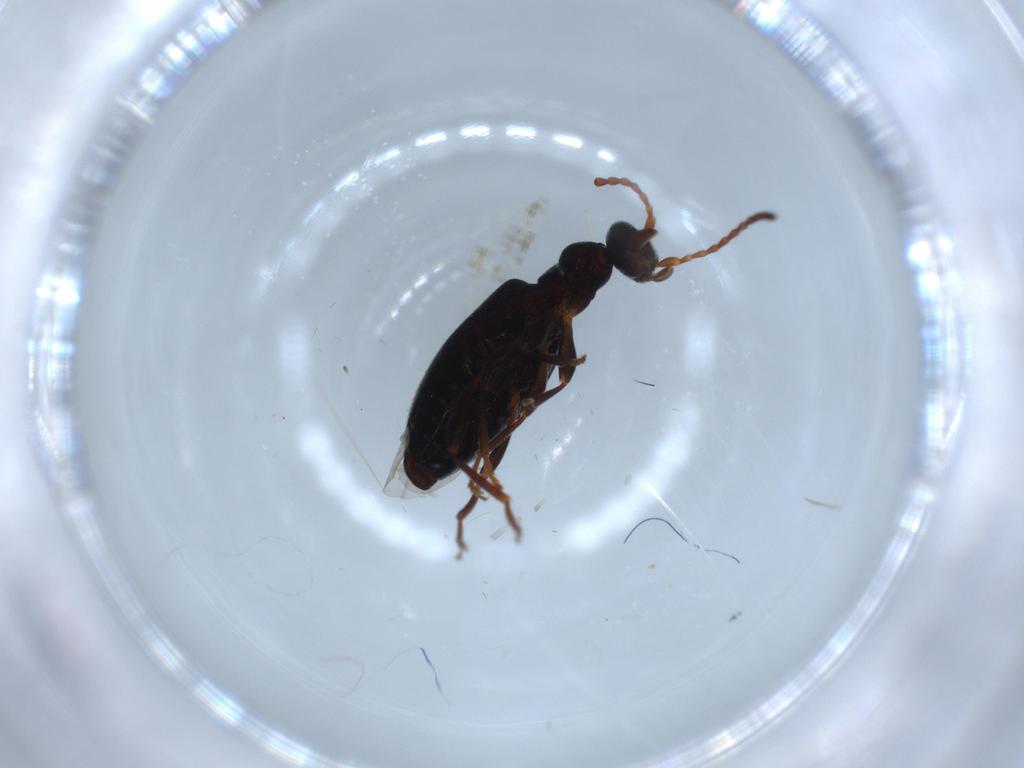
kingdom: Animalia
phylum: Arthropoda
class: Insecta
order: Coleoptera
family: Anthicidae
